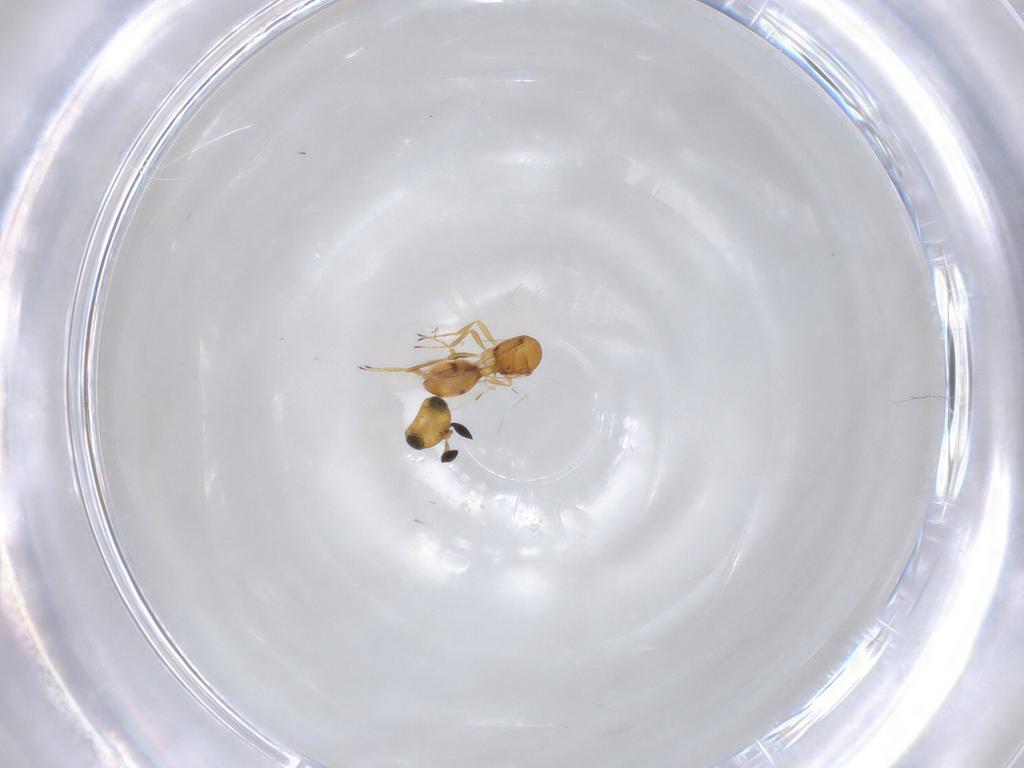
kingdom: Animalia
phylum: Arthropoda
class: Insecta
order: Hymenoptera
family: Scelionidae
